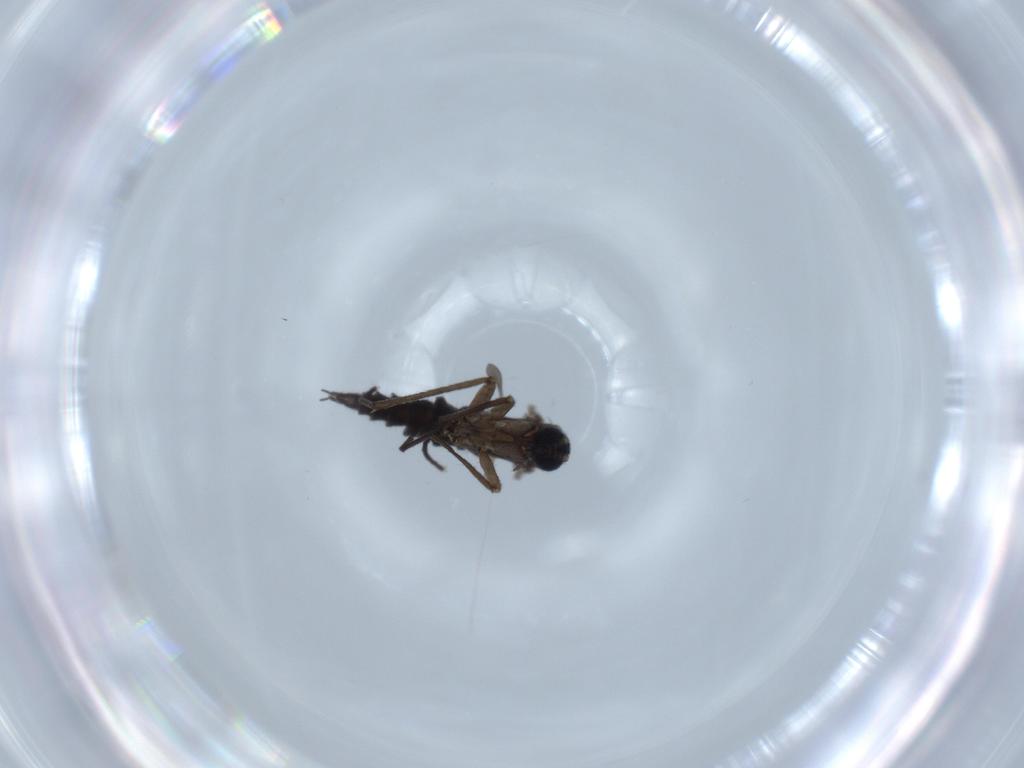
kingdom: Animalia
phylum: Arthropoda
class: Insecta
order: Diptera
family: Sciaridae
